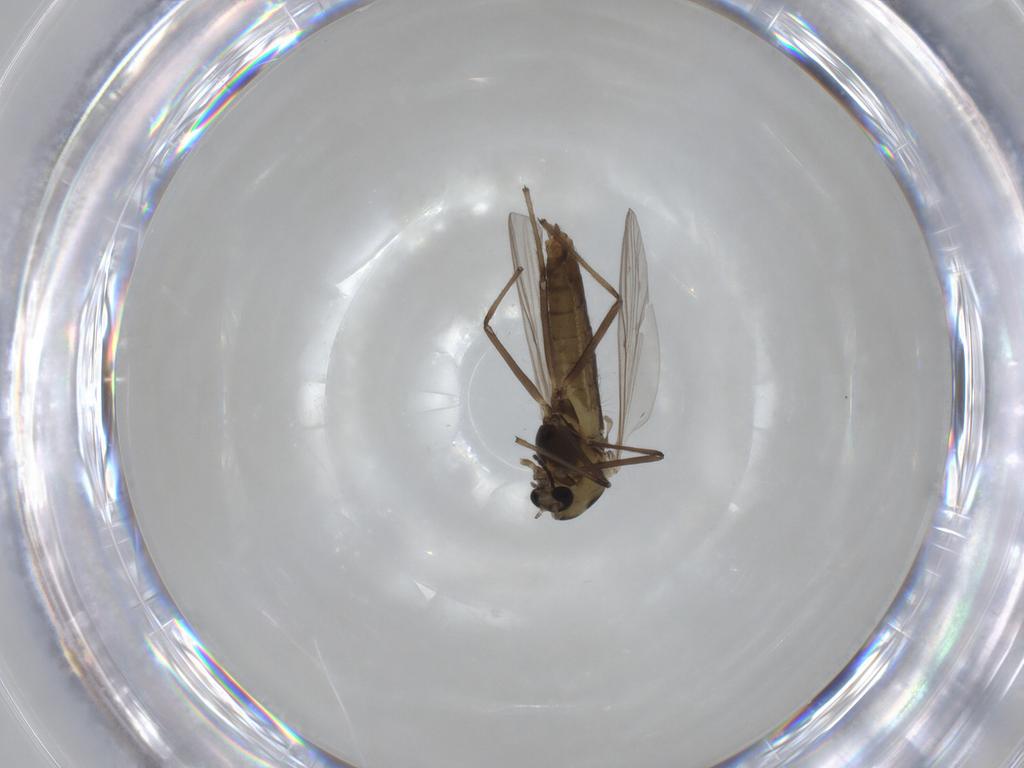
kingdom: Animalia
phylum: Arthropoda
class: Insecta
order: Diptera
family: Chironomidae
